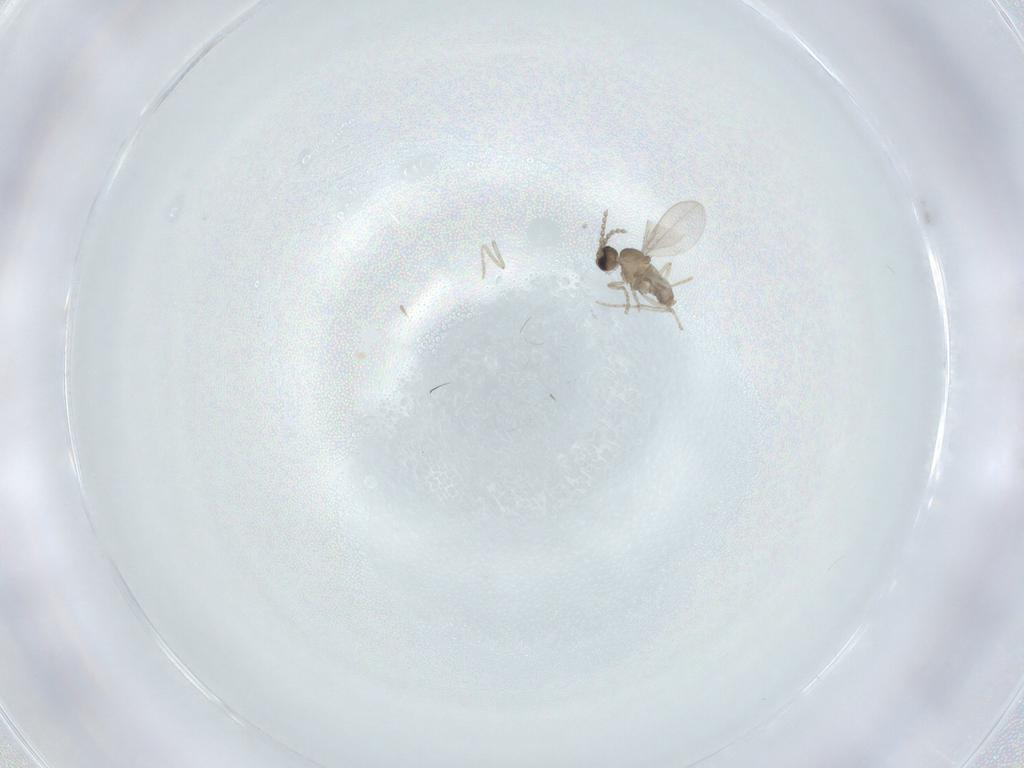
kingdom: Animalia
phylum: Arthropoda
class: Insecta
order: Diptera
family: Cecidomyiidae
